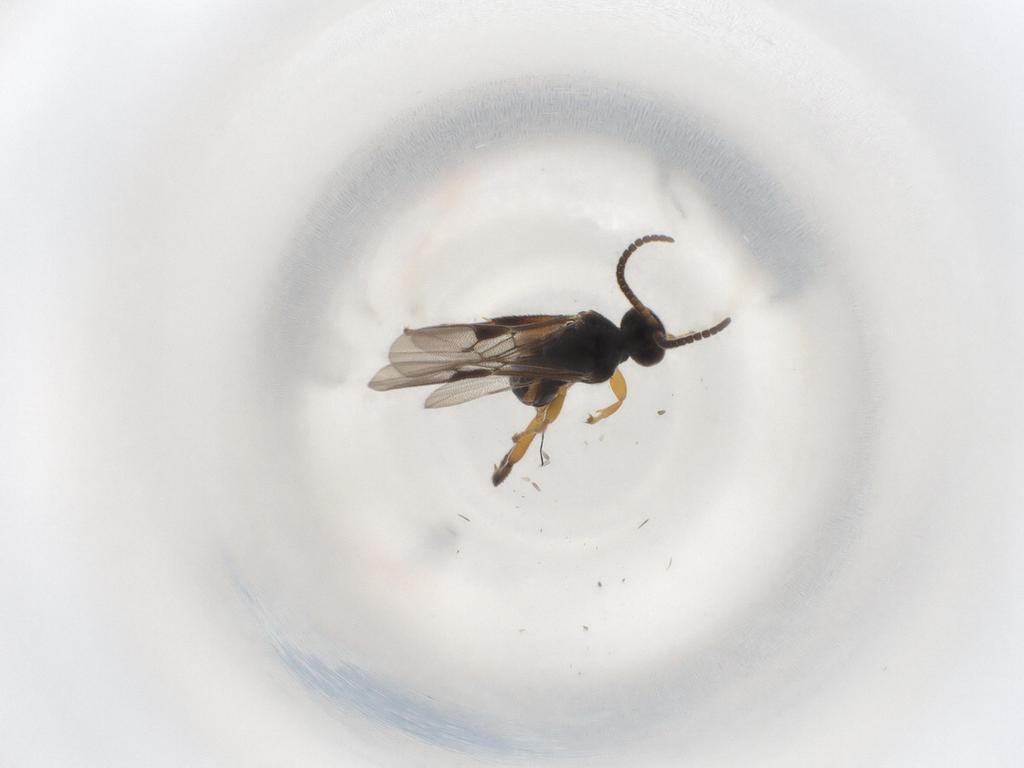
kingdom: Animalia
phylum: Arthropoda
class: Insecta
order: Hymenoptera
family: Braconidae
